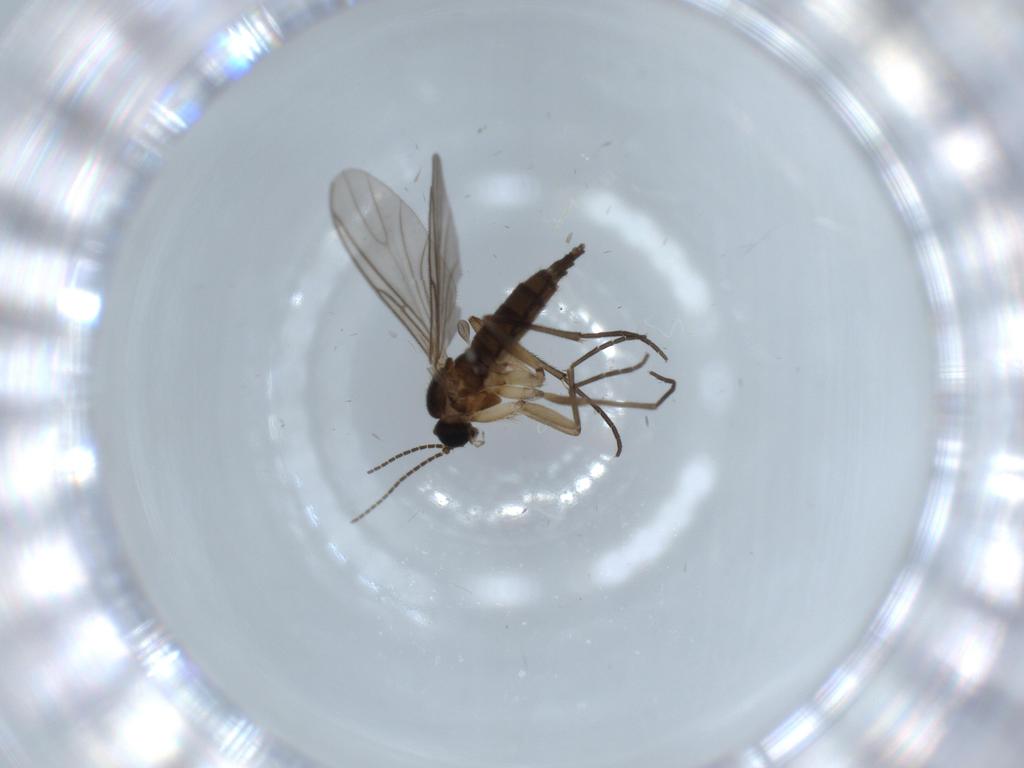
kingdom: Animalia
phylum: Arthropoda
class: Insecta
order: Diptera
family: Sciaridae
